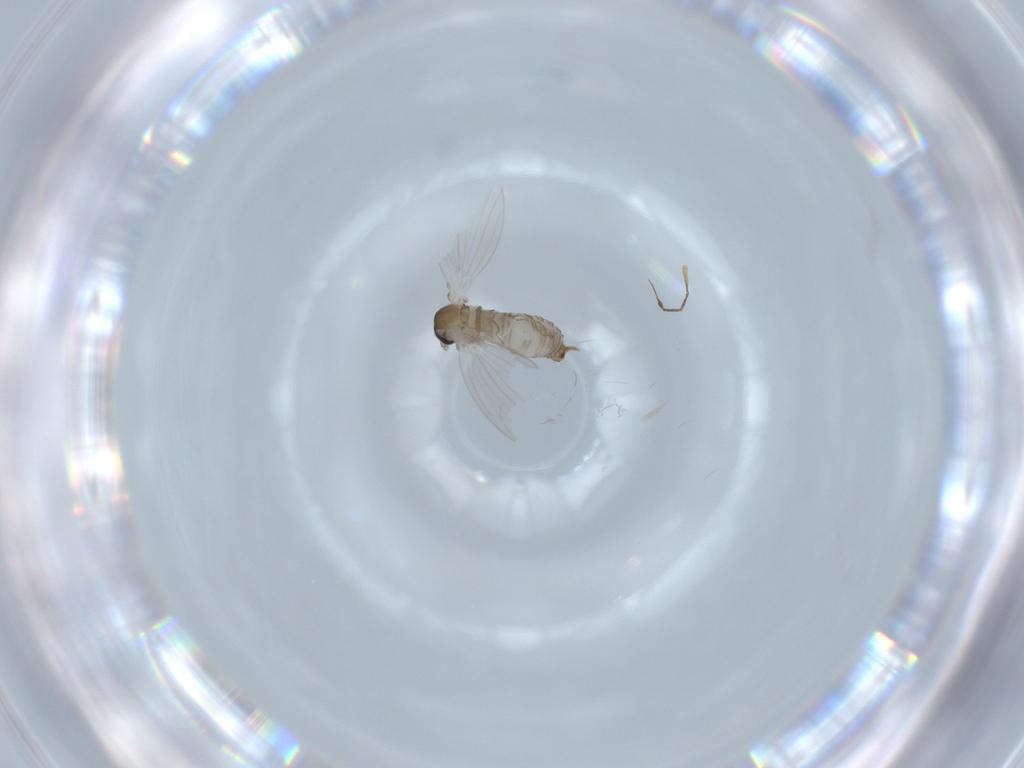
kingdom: Animalia
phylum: Arthropoda
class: Insecta
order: Diptera
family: Psychodidae
